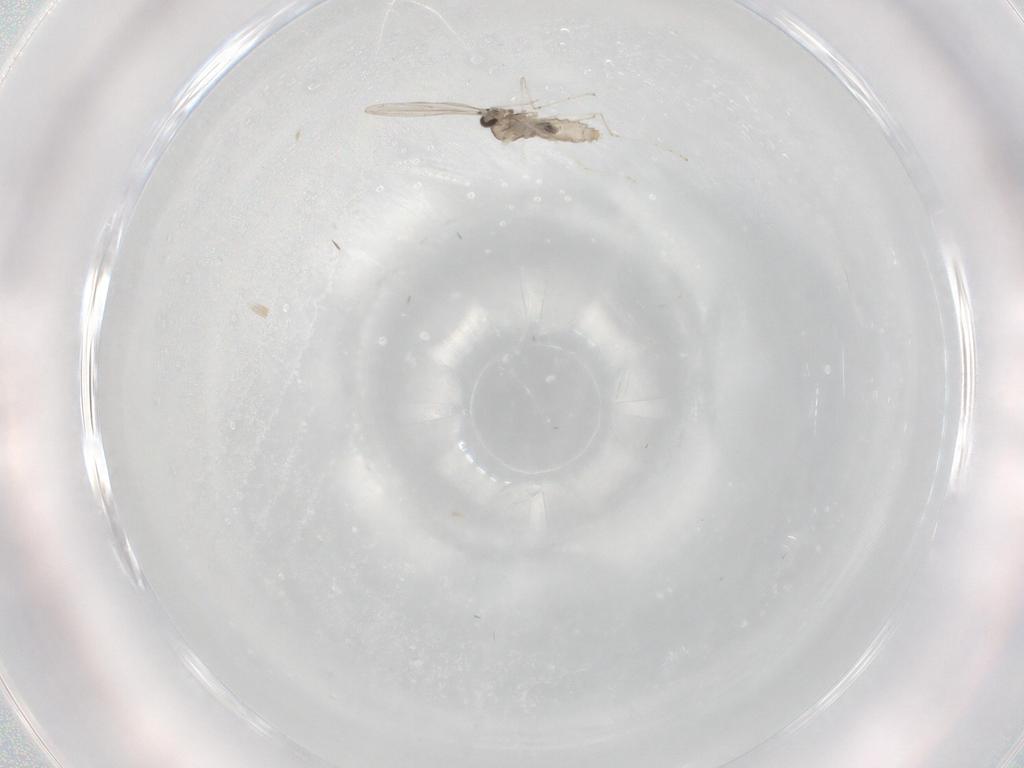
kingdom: Animalia
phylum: Arthropoda
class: Insecta
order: Diptera
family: Cecidomyiidae
